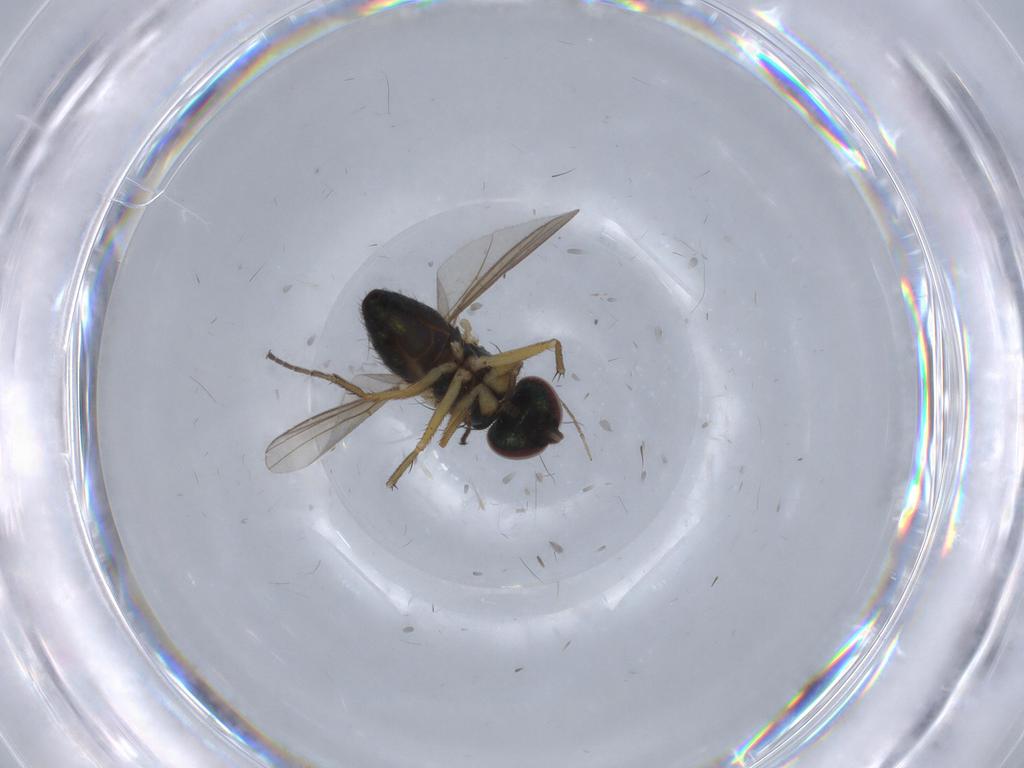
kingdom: Animalia
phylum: Arthropoda
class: Insecta
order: Diptera
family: Chironomidae
